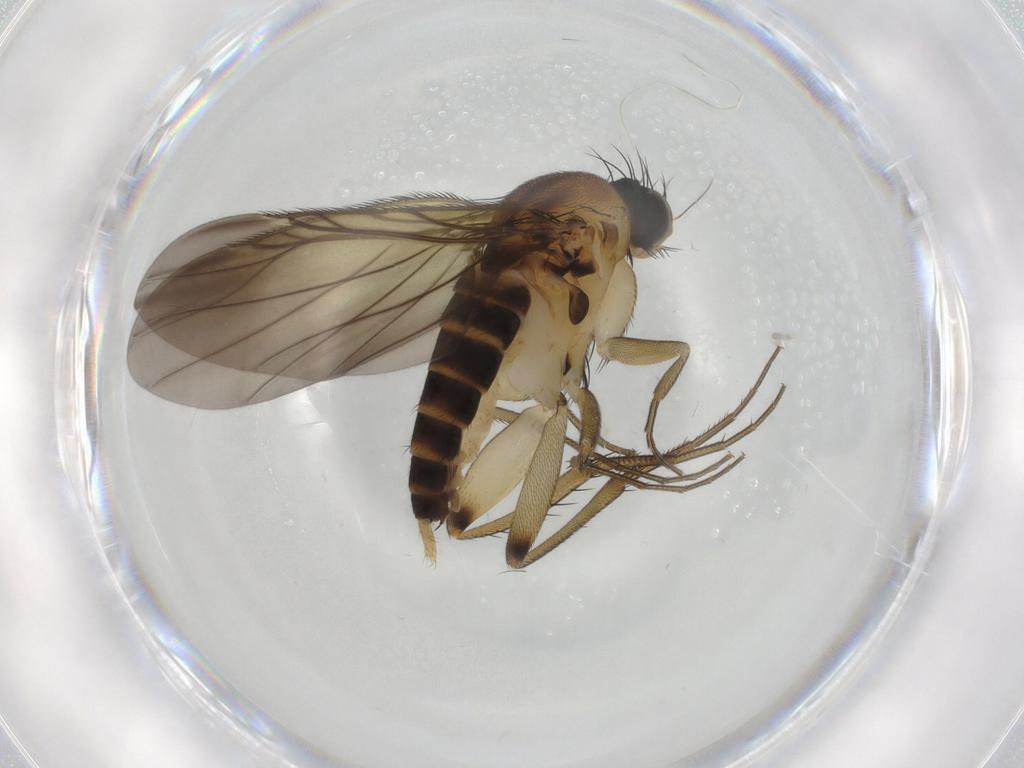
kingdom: Animalia
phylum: Arthropoda
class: Insecta
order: Diptera
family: Phoridae
